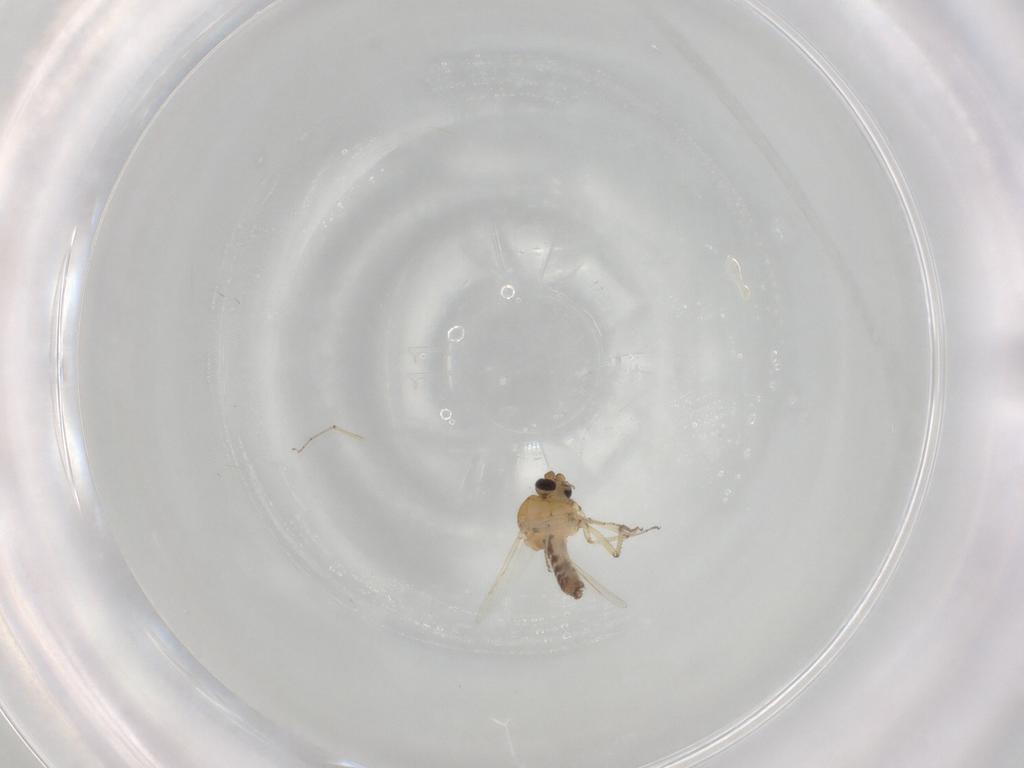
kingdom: Animalia
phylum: Arthropoda
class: Insecta
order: Diptera
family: Ceratopogonidae
